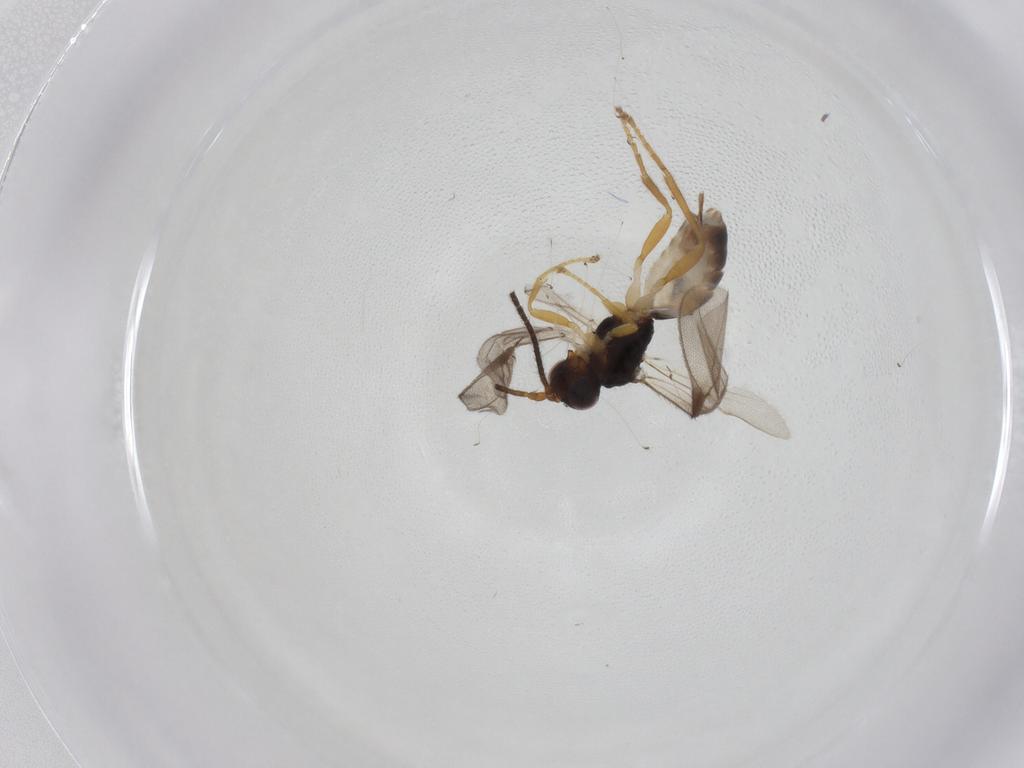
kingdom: Animalia
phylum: Arthropoda
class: Insecta
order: Hymenoptera
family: Braconidae
